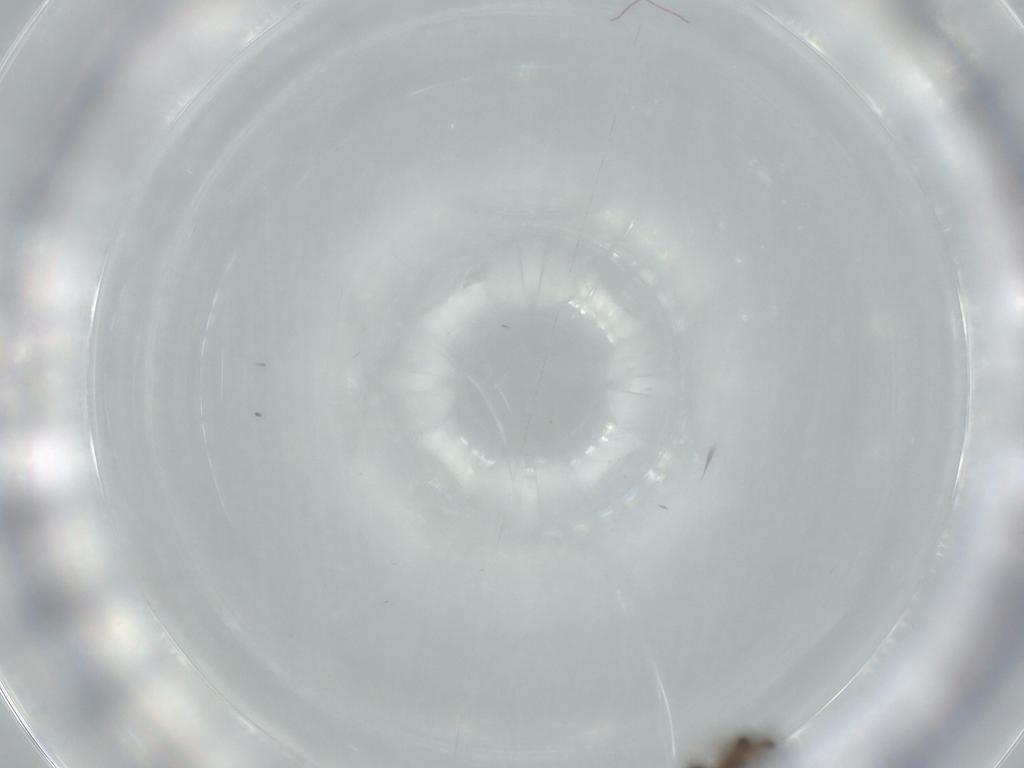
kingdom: Animalia
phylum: Arthropoda
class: Insecta
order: Hymenoptera
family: Platygastridae
